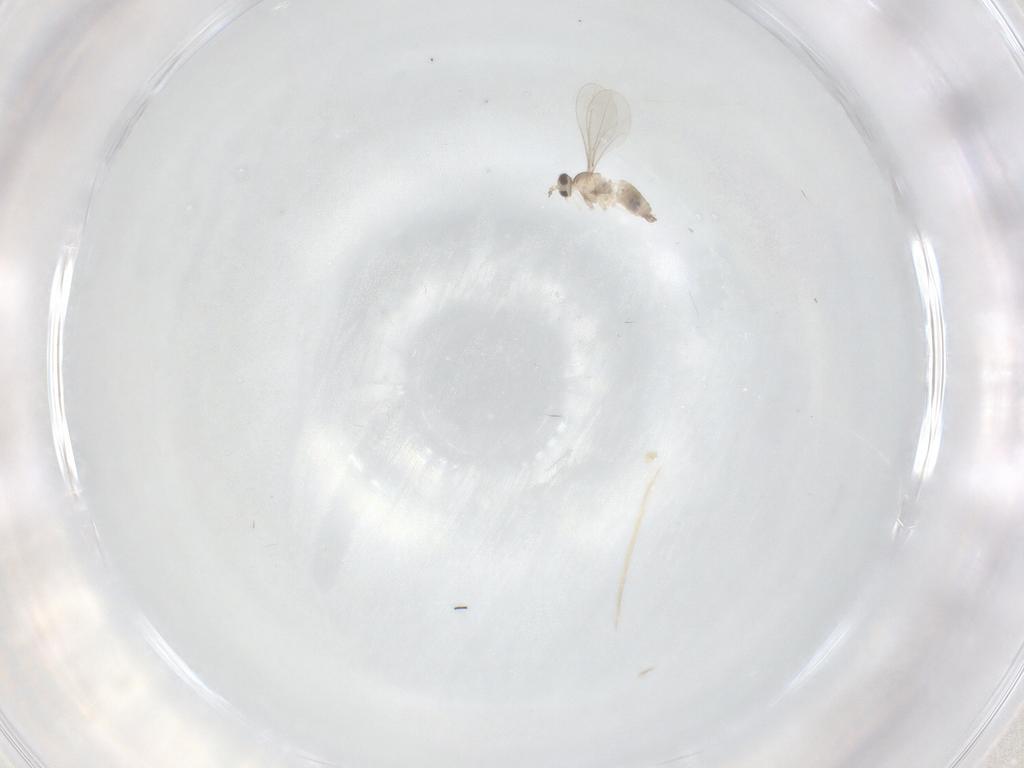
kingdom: Animalia
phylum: Arthropoda
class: Insecta
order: Diptera
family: Cecidomyiidae
